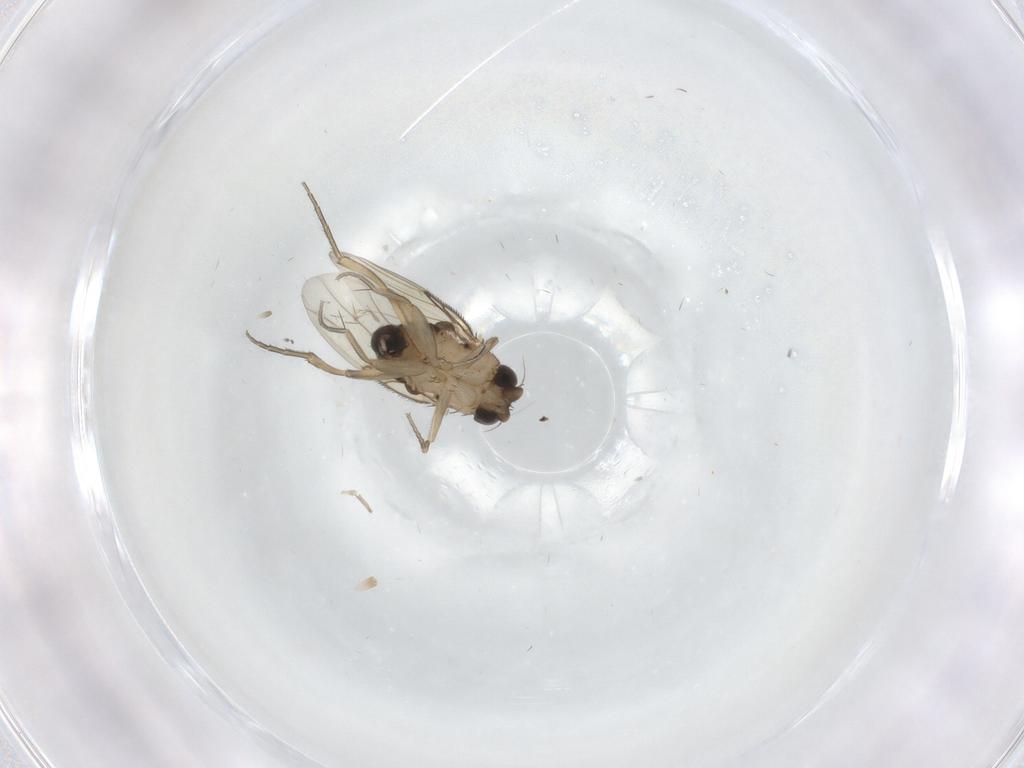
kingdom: Animalia
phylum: Arthropoda
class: Insecta
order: Diptera
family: Phoridae
